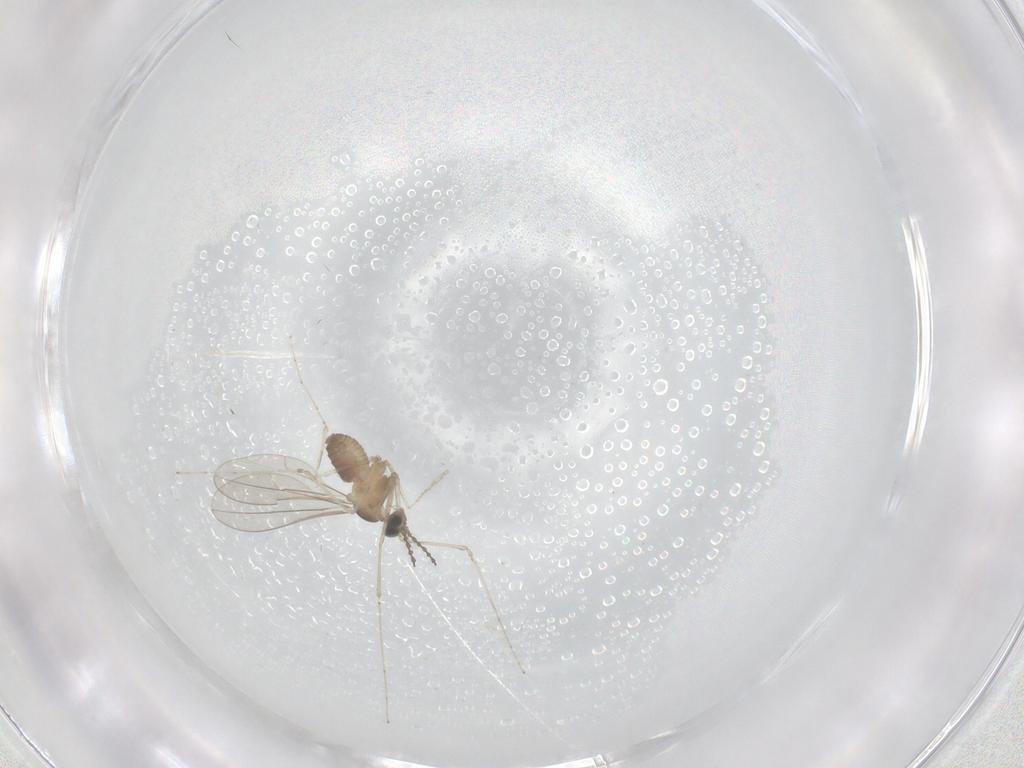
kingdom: Animalia
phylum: Arthropoda
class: Insecta
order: Diptera
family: Cecidomyiidae
